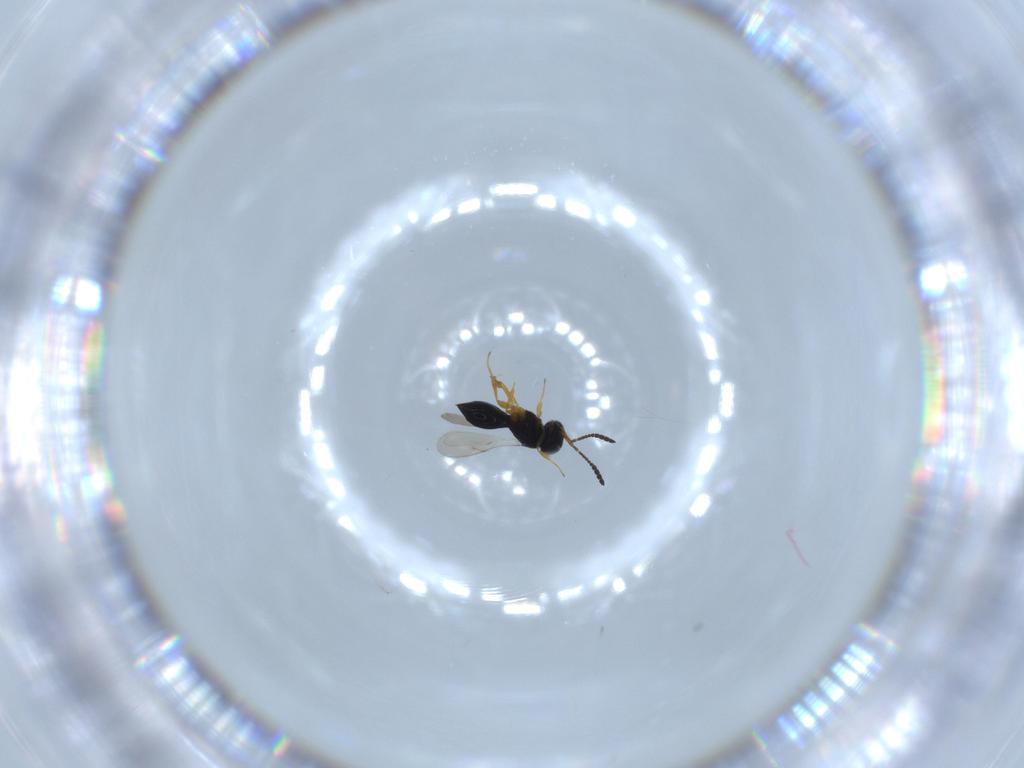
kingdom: Animalia
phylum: Arthropoda
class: Insecta
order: Hymenoptera
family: Scelionidae
